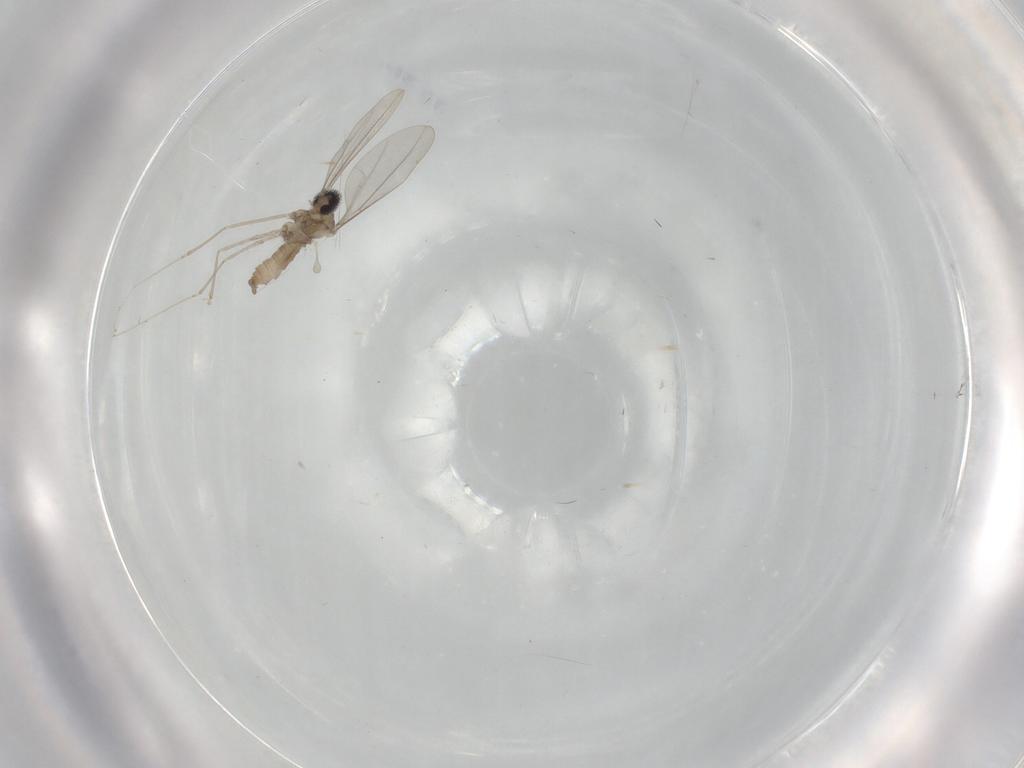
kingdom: Animalia
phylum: Arthropoda
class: Insecta
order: Diptera
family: Cecidomyiidae
